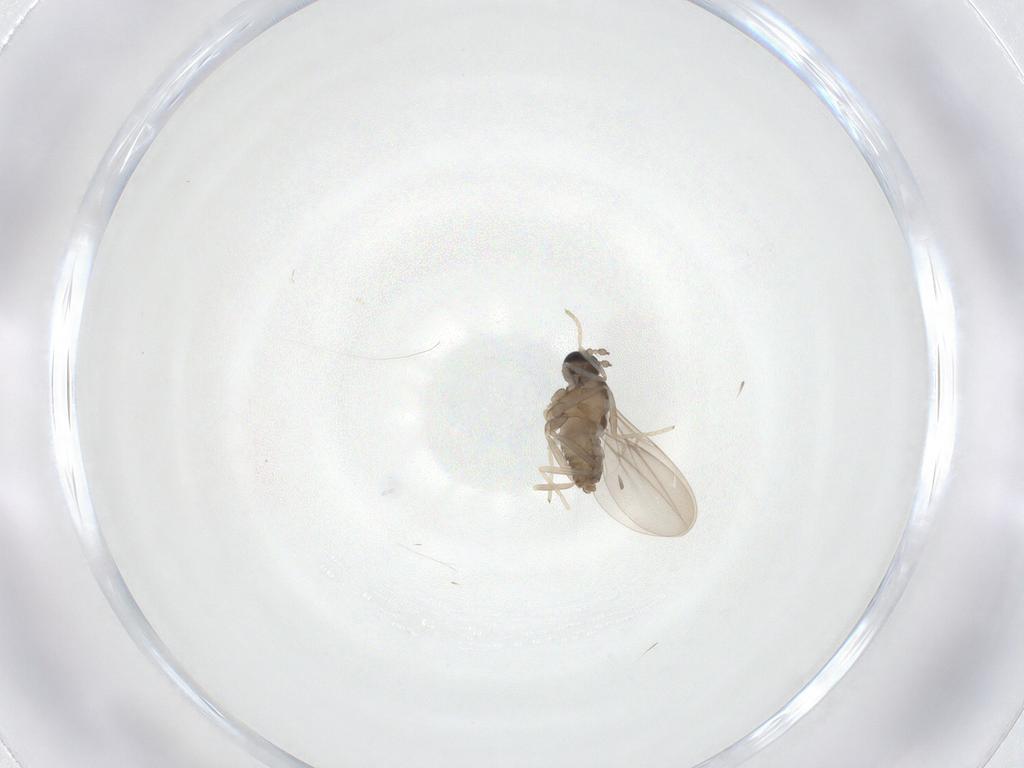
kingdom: Animalia
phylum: Arthropoda
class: Insecta
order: Diptera
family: Cecidomyiidae
